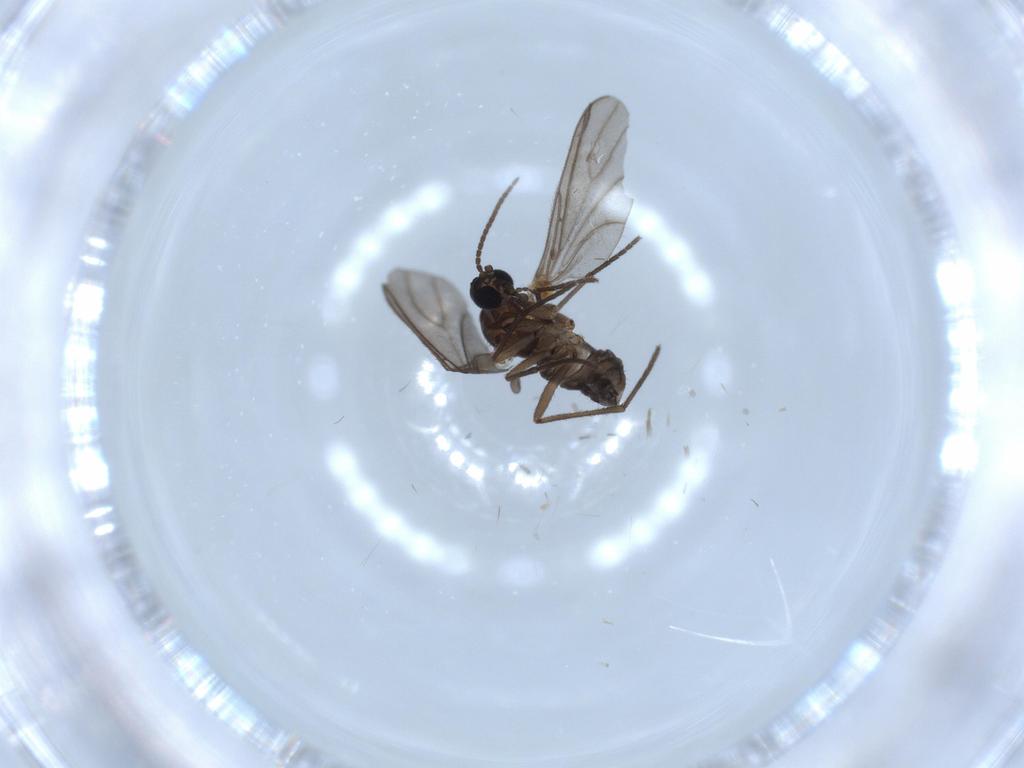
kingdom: Animalia
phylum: Arthropoda
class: Insecta
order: Diptera
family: Sciaridae
